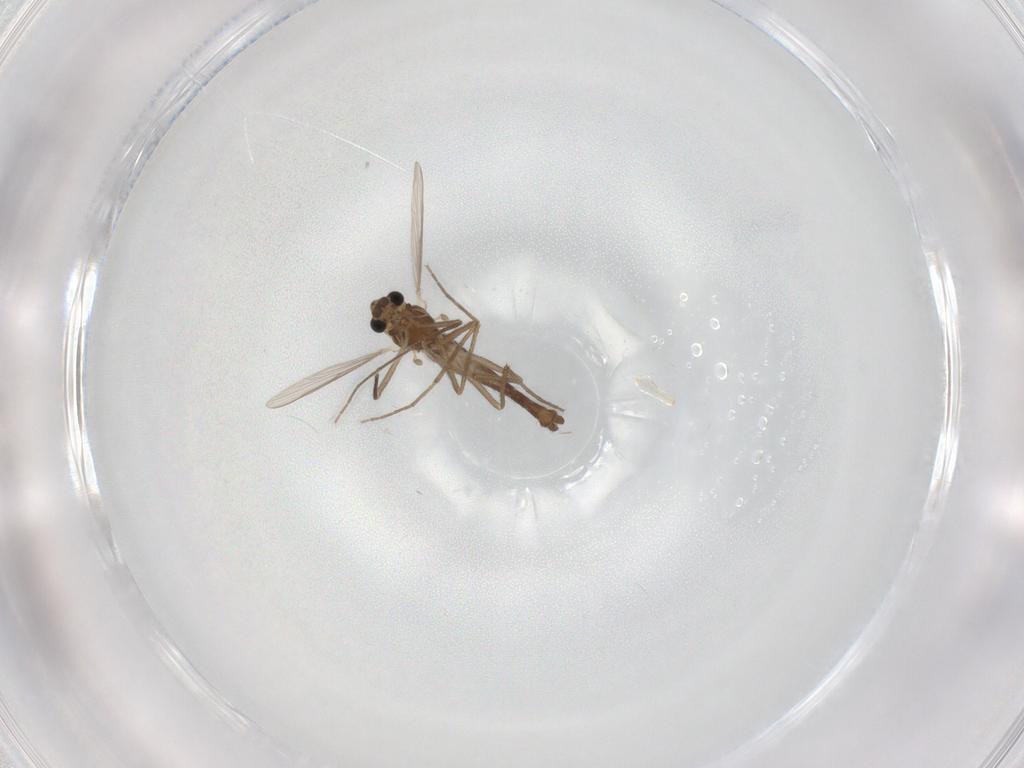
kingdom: Animalia
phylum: Arthropoda
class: Insecta
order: Diptera
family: Chironomidae
